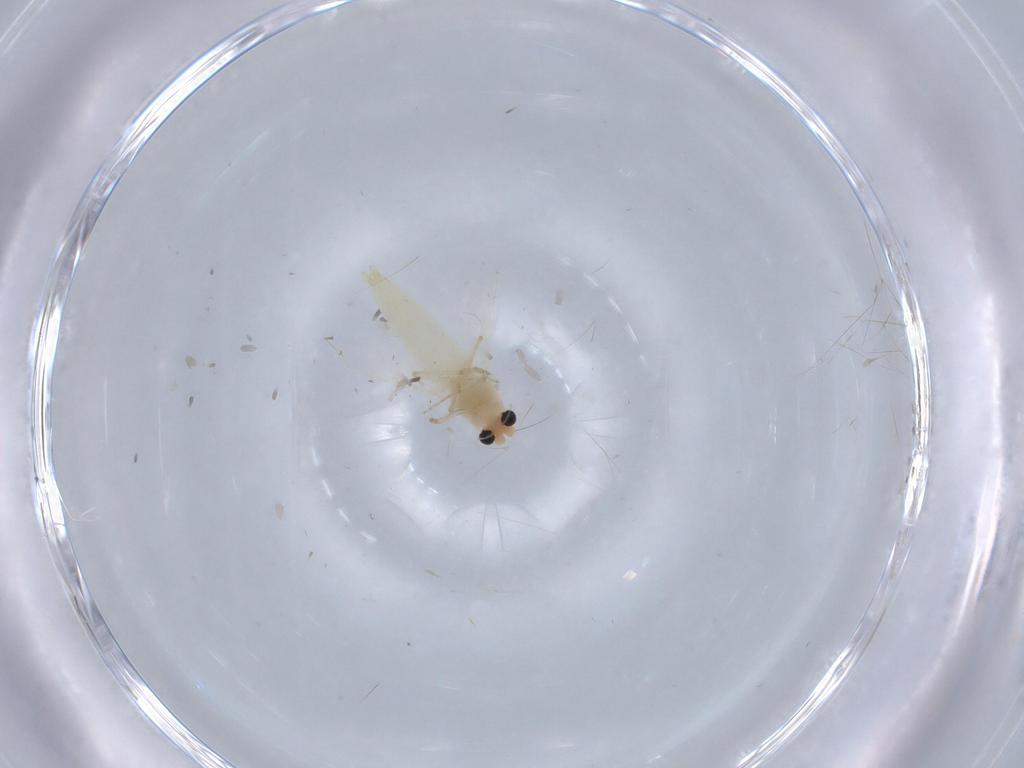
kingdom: Animalia
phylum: Arthropoda
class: Insecta
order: Diptera
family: Chironomidae
